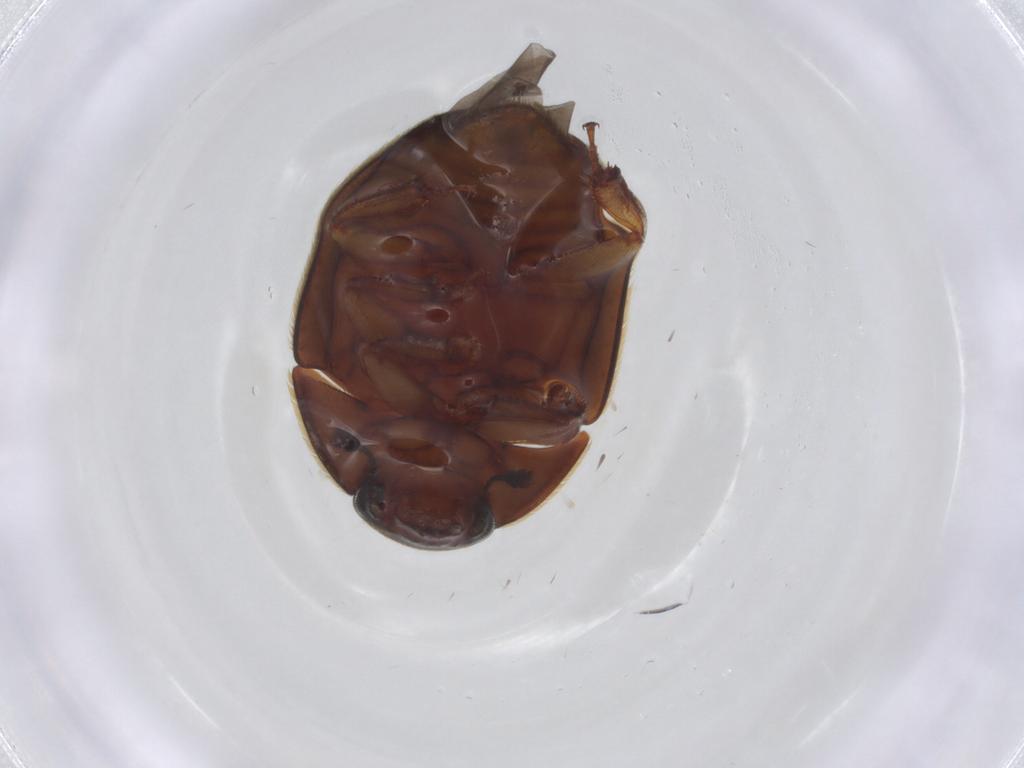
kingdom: Animalia
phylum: Arthropoda
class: Insecta
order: Coleoptera
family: Nitidulidae
